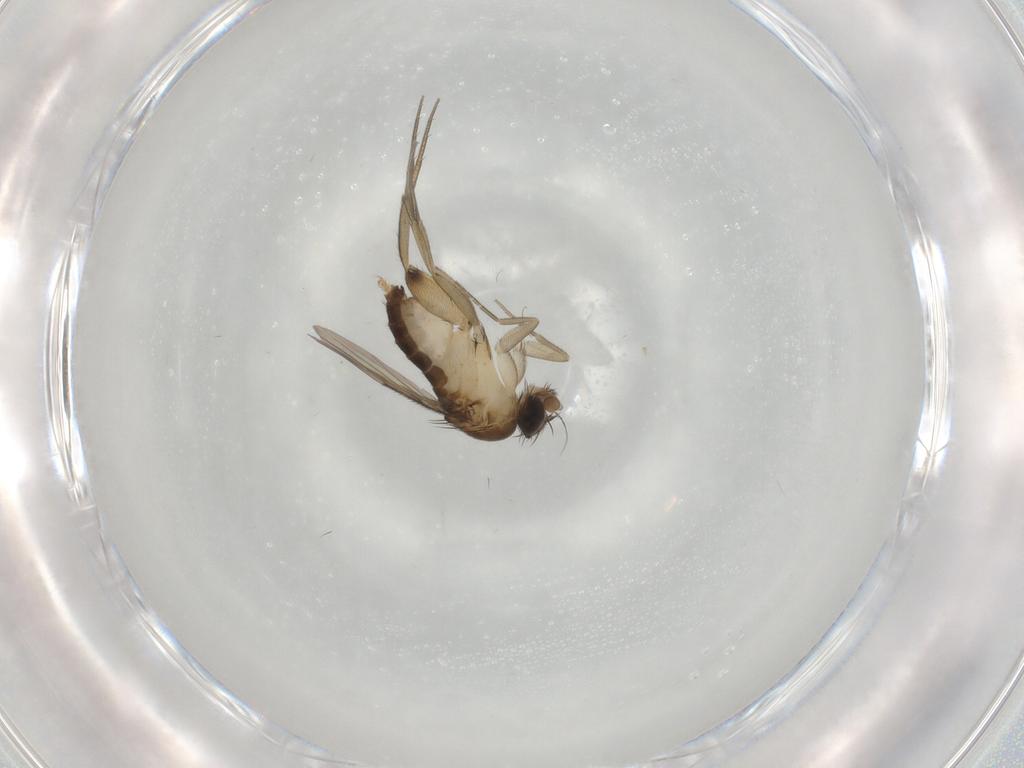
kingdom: Animalia
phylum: Arthropoda
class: Insecta
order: Diptera
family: Phoridae
